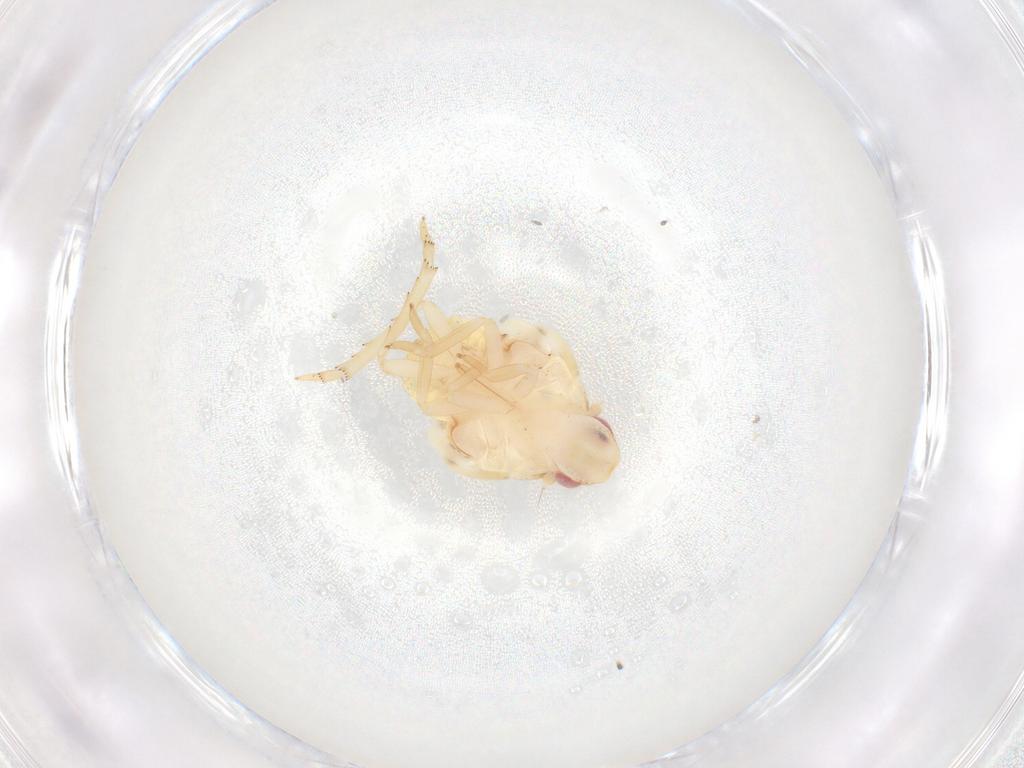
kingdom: Animalia
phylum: Arthropoda
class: Insecta
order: Hemiptera
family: Flatidae
